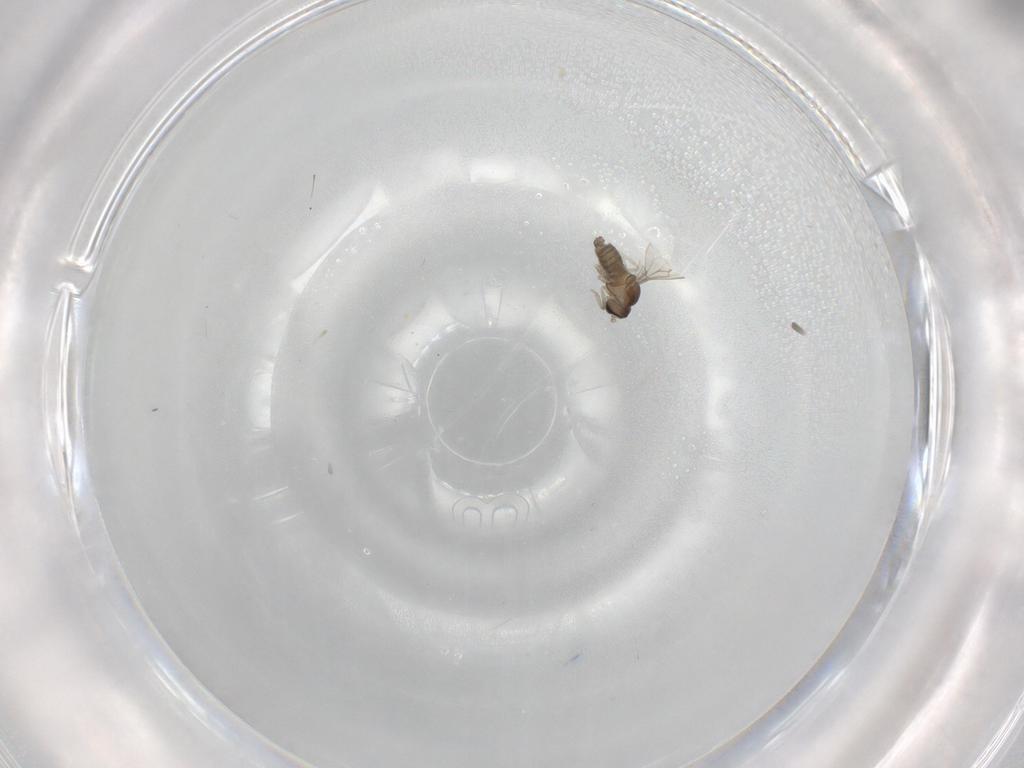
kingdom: Animalia
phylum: Arthropoda
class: Insecta
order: Diptera
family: Cecidomyiidae
